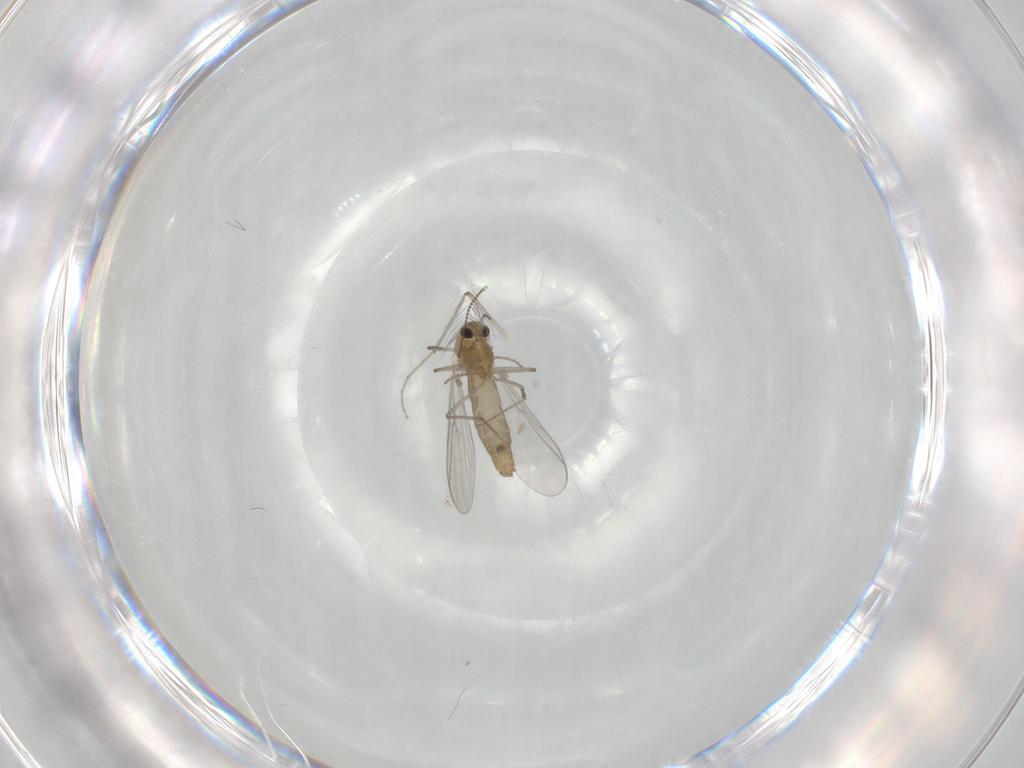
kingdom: Animalia
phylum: Arthropoda
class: Insecta
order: Diptera
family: Chironomidae
